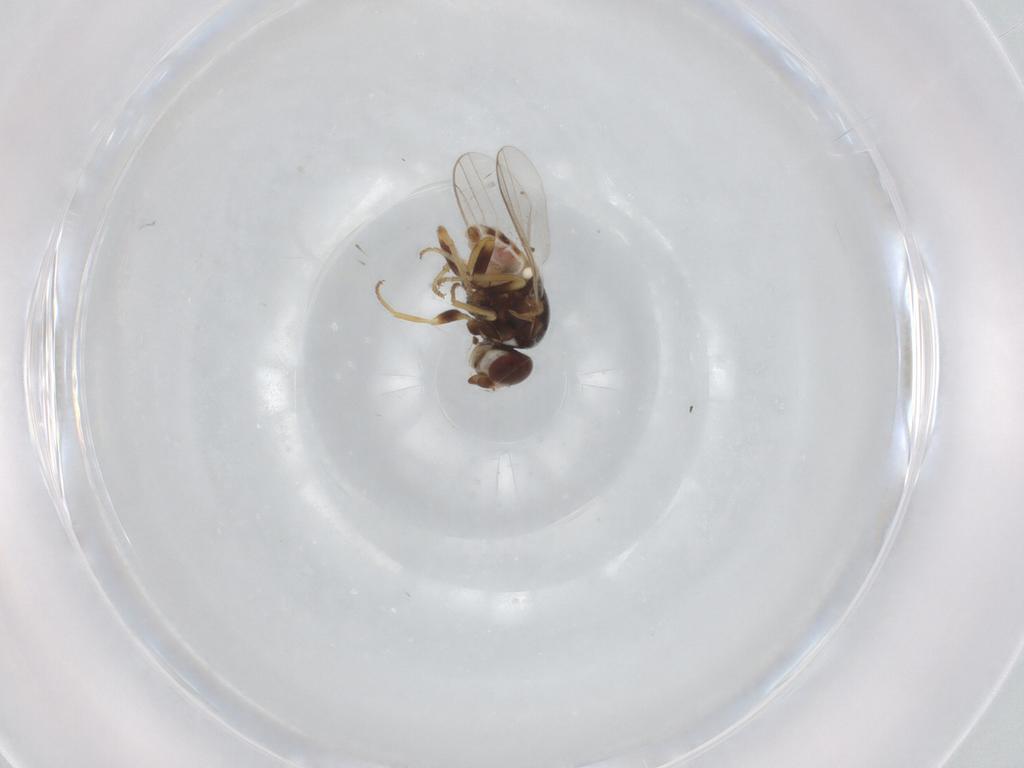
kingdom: Animalia
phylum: Arthropoda
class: Insecta
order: Diptera
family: Chloropidae
